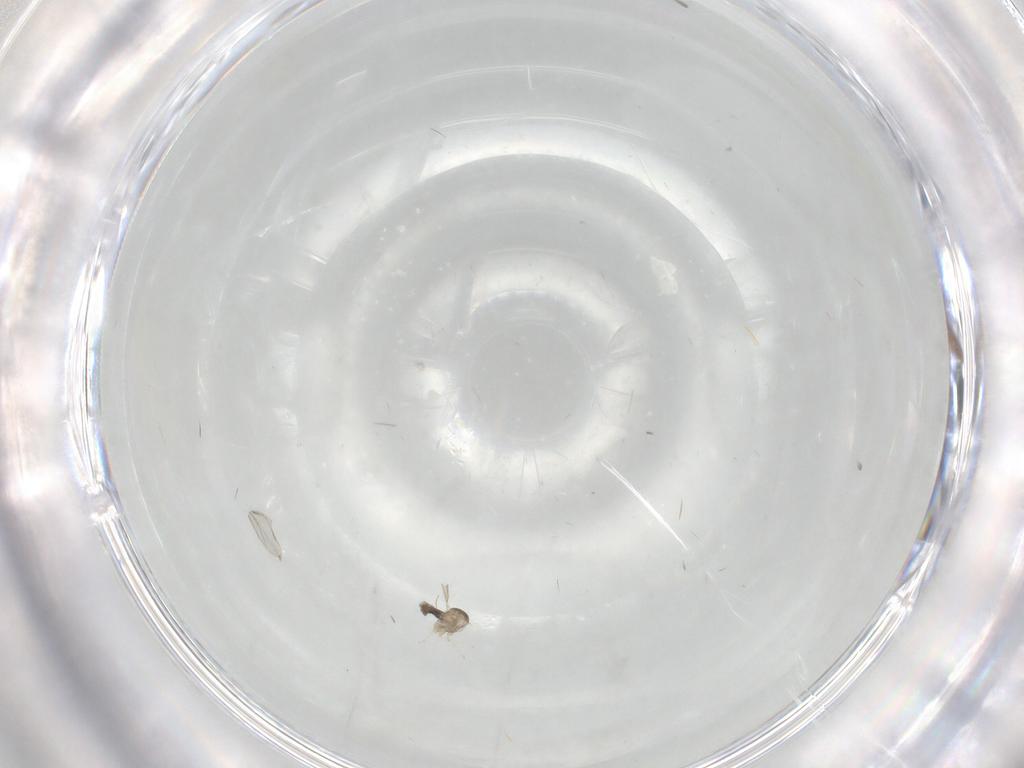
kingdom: Animalia
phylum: Arthropoda
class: Insecta
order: Diptera
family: Cecidomyiidae
